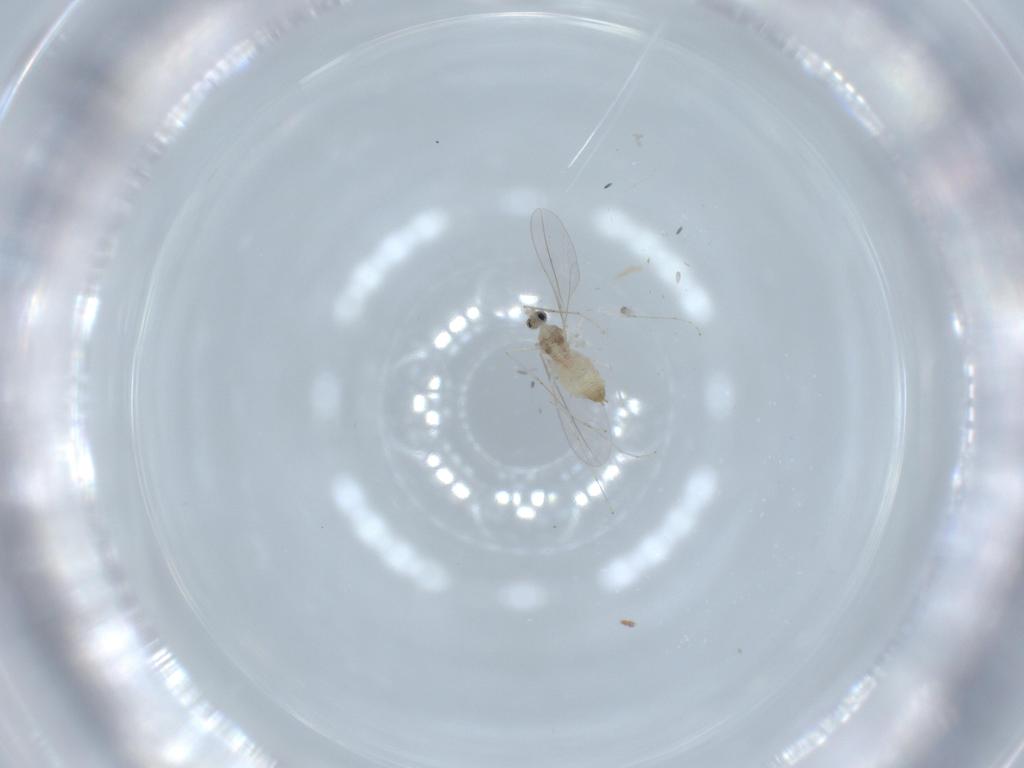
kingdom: Animalia
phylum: Arthropoda
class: Insecta
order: Diptera
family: Cecidomyiidae
